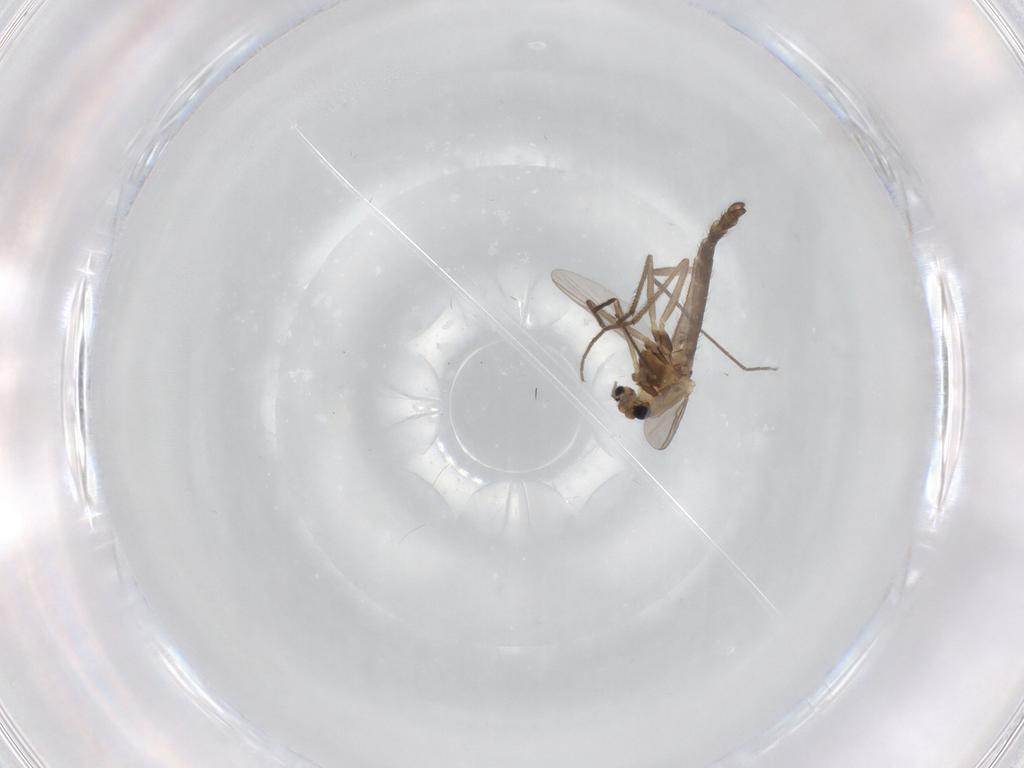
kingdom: Animalia
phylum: Arthropoda
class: Insecta
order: Diptera
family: Chironomidae
